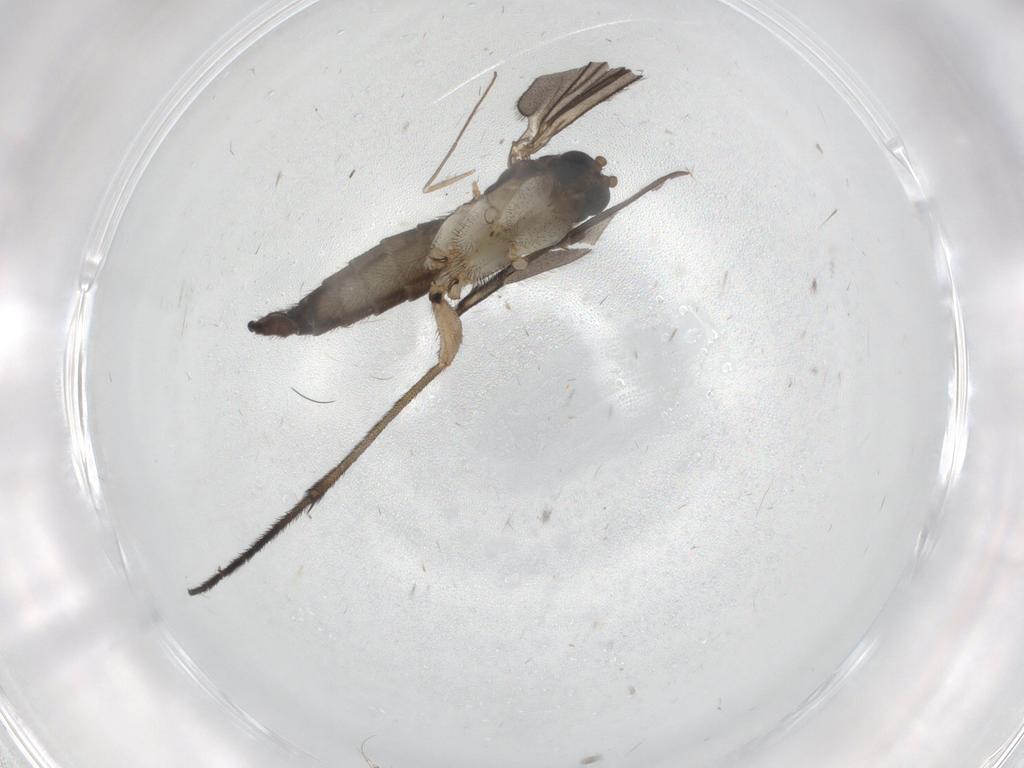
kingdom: Animalia
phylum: Arthropoda
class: Insecta
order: Diptera
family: Sciaridae
